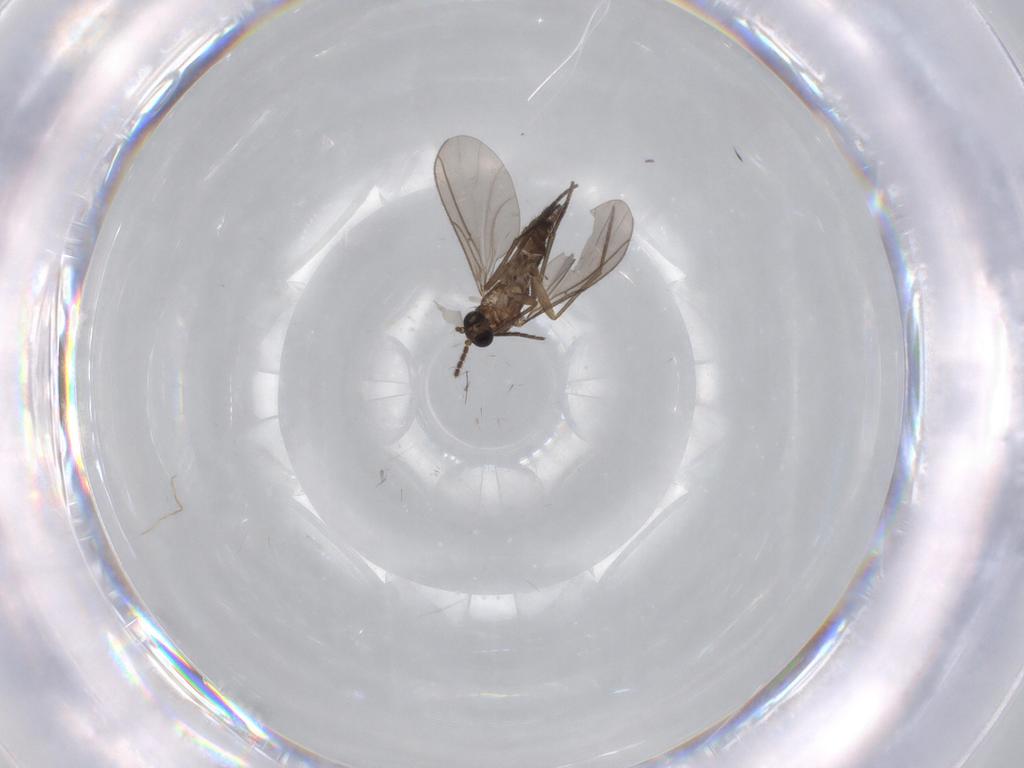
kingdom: Animalia
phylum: Arthropoda
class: Insecta
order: Diptera
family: Sciaridae
